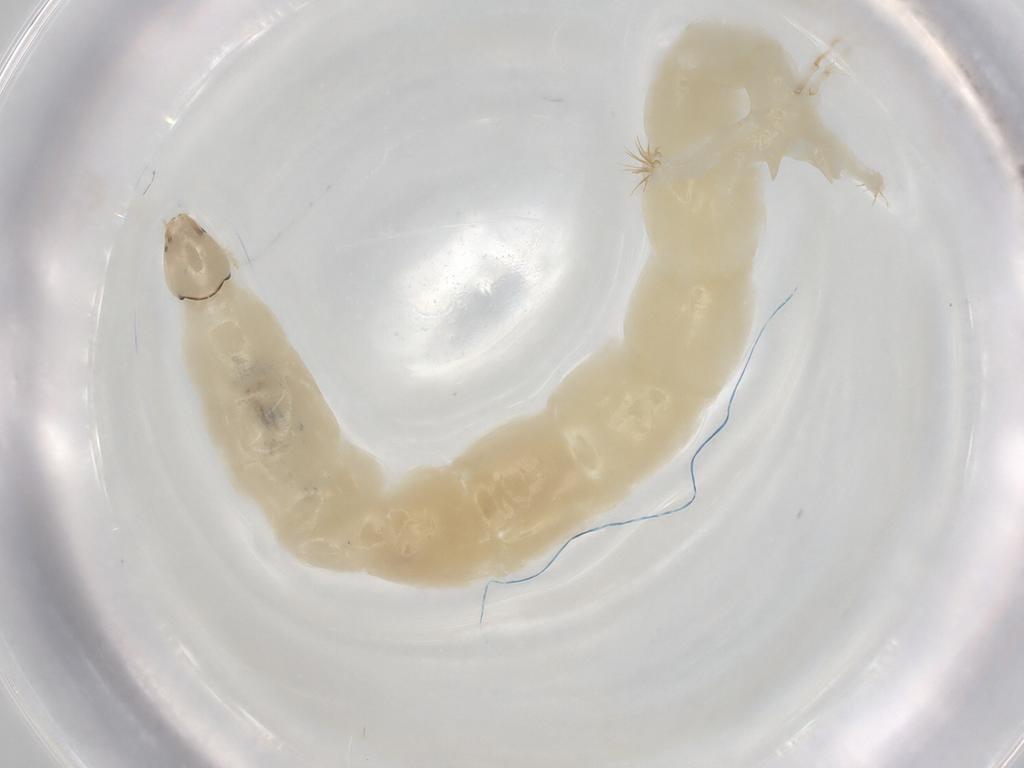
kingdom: Animalia
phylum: Arthropoda
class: Insecta
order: Diptera
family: Chironomidae
